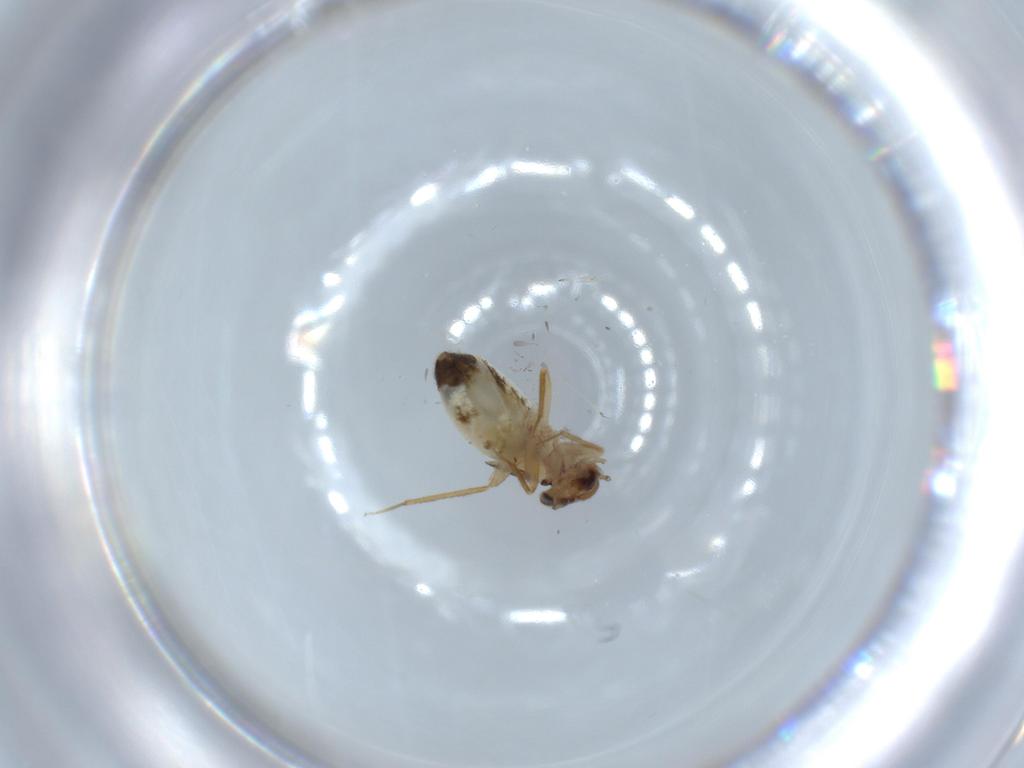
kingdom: Animalia
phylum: Arthropoda
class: Insecta
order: Psocodea
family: Lepidopsocidae
